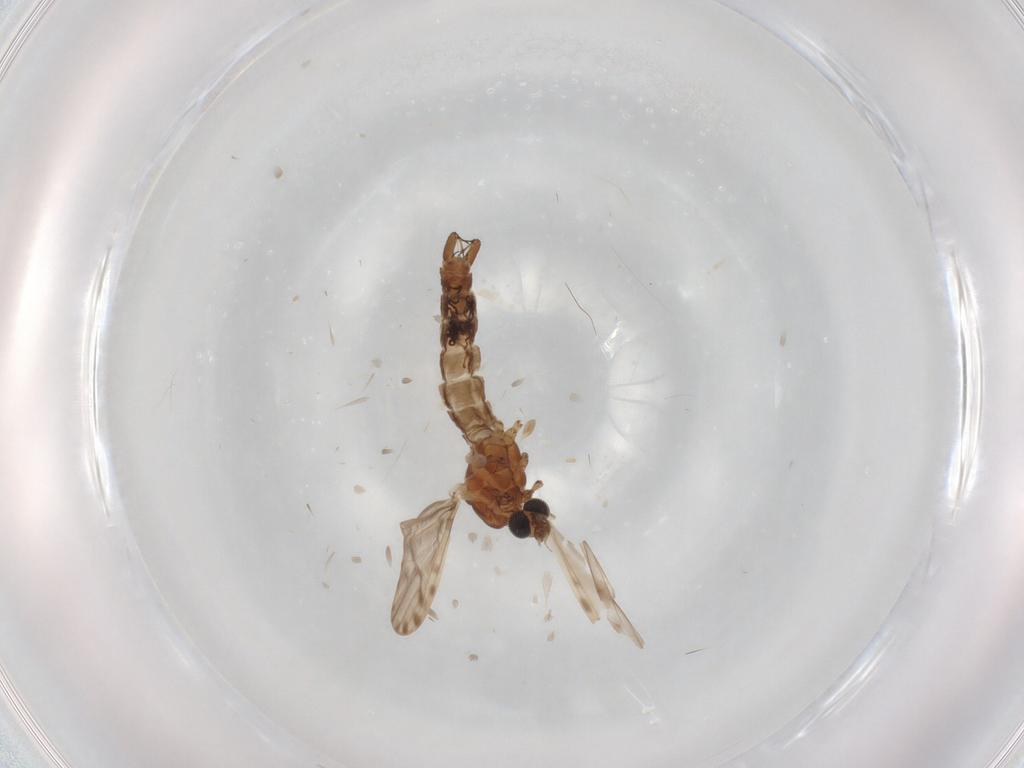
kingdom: Animalia
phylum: Arthropoda
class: Insecta
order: Diptera
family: Limoniidae
